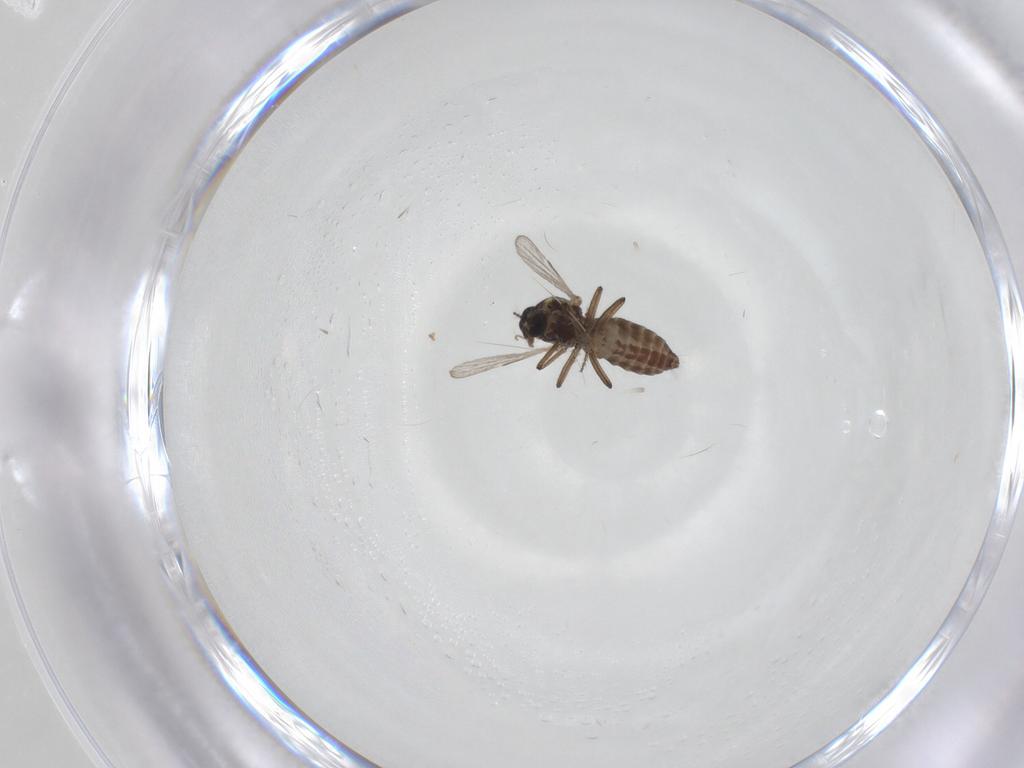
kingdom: Animalia
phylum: Arthropoda
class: Insecta
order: Diptera
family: Ceratopogonidae
